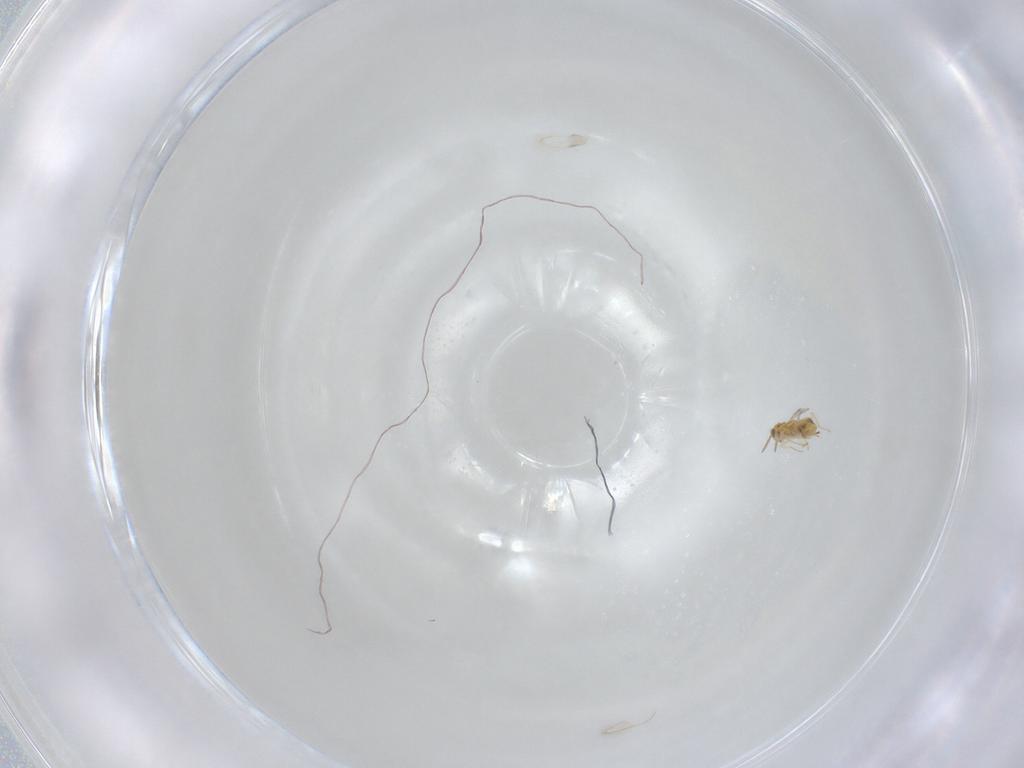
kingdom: Animalia
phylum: Arthropoda
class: Insecta
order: Hymenoptera
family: Aphelinidae
